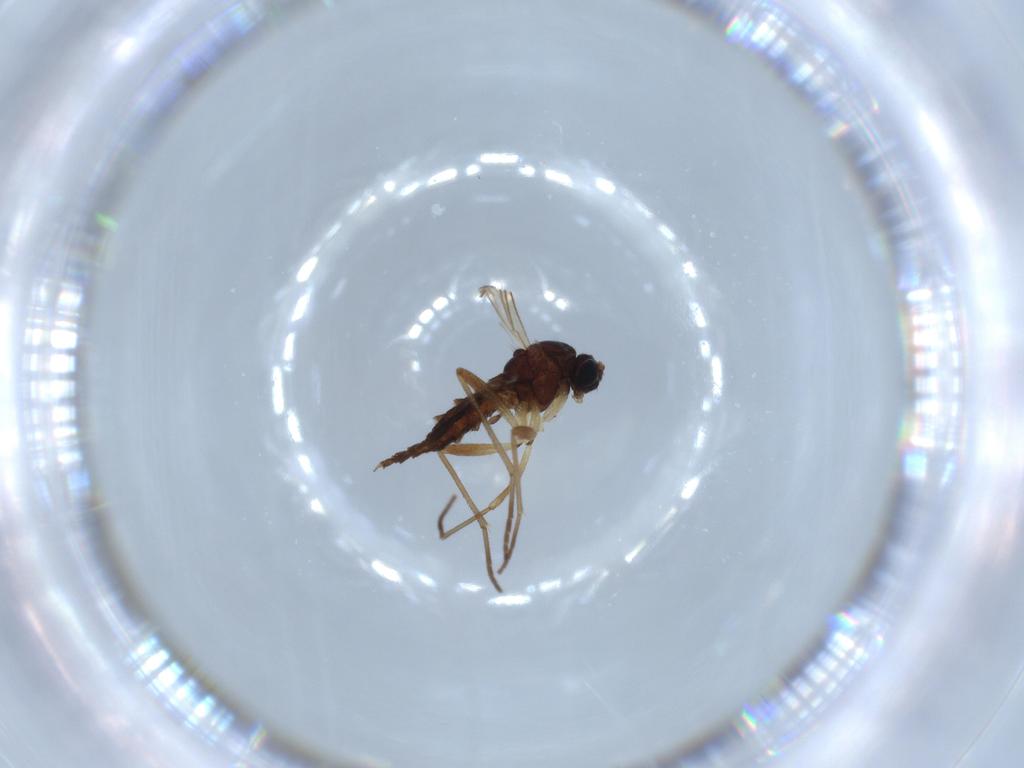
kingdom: Animalia
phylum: Arthropoda
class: Insecta
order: Diptera
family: Sciaridae
